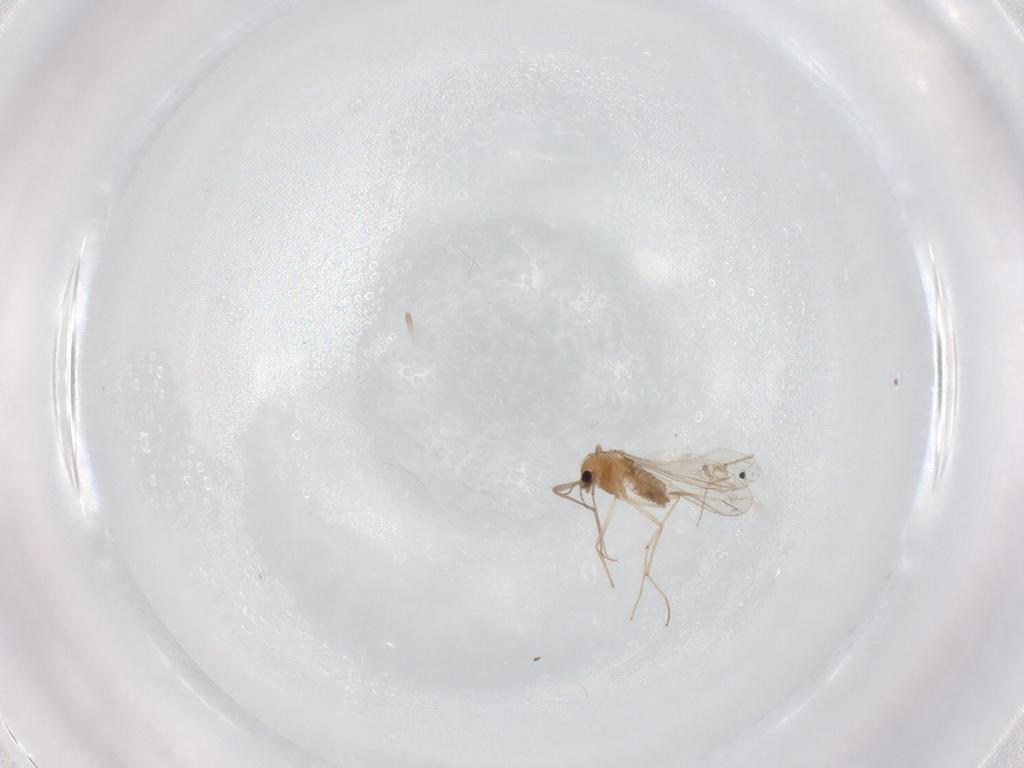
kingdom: Animalia
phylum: Arthropoda
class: Insecta
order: Diptera
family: Chironomidae
